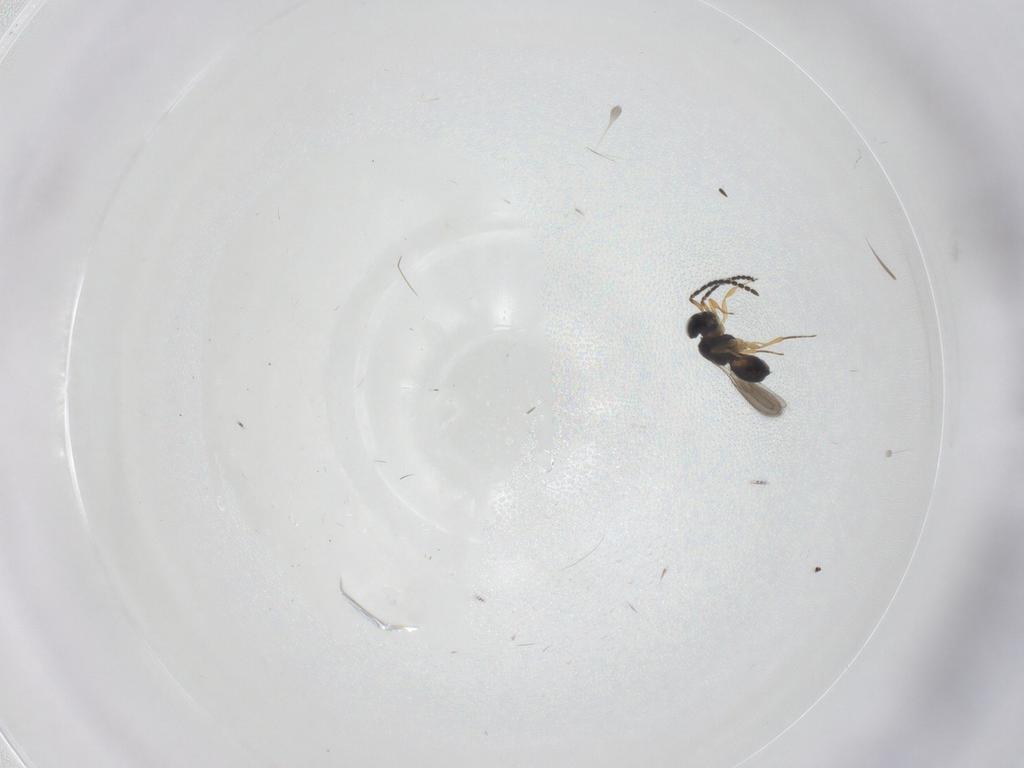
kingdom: Animalia
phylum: Arthropoda
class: Insecta
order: Hymenoptera
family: Scelionidae
